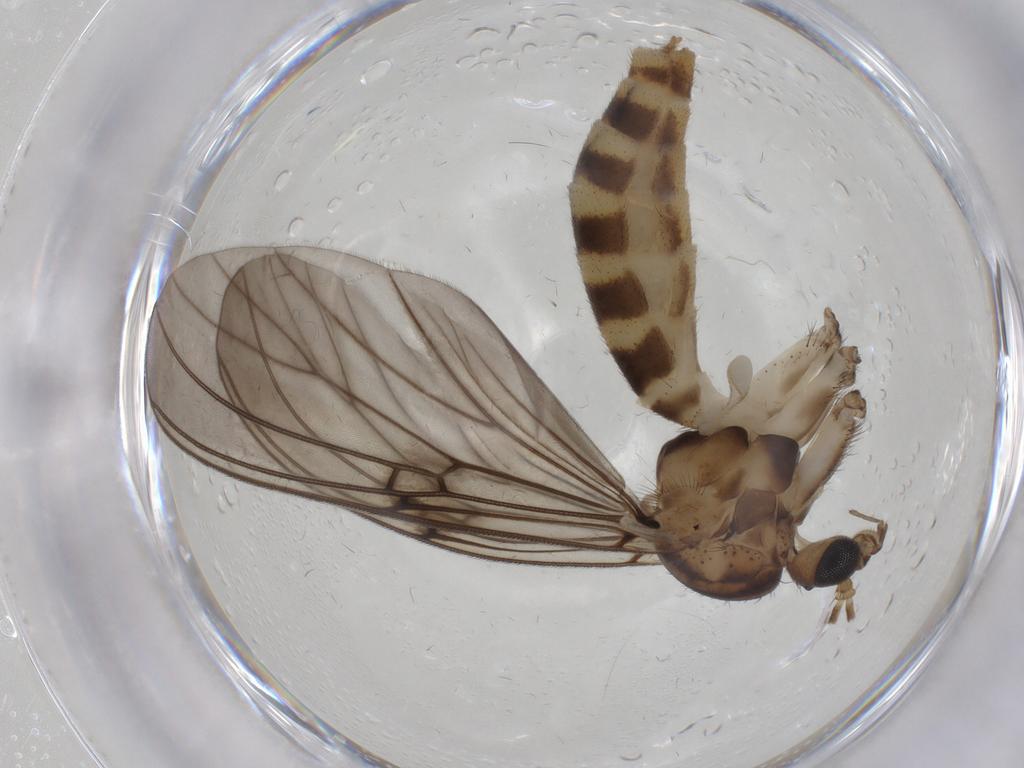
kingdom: Animalia
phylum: Arthropoda
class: Insecta
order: Diptera
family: Mycetophilidae
